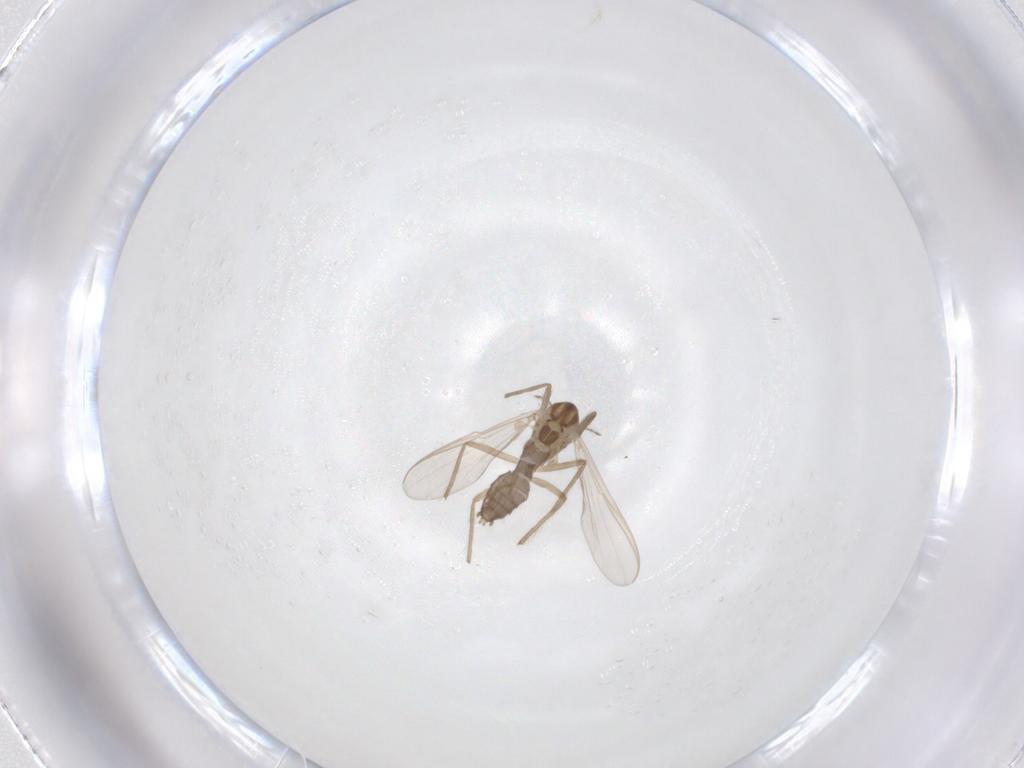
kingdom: Animalia
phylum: Arthropoda
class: Insecta
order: Diptera
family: Chironomidae
